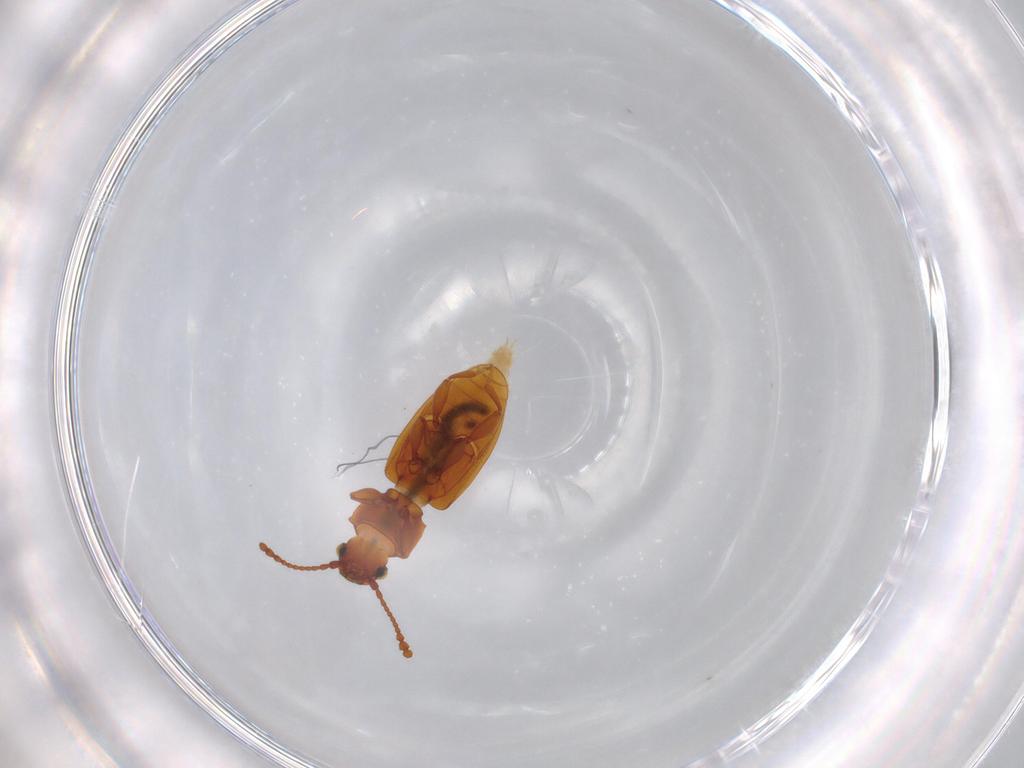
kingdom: Animalia
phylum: Arthropoda
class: Insecta
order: Coleoptera
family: Silvanidae
